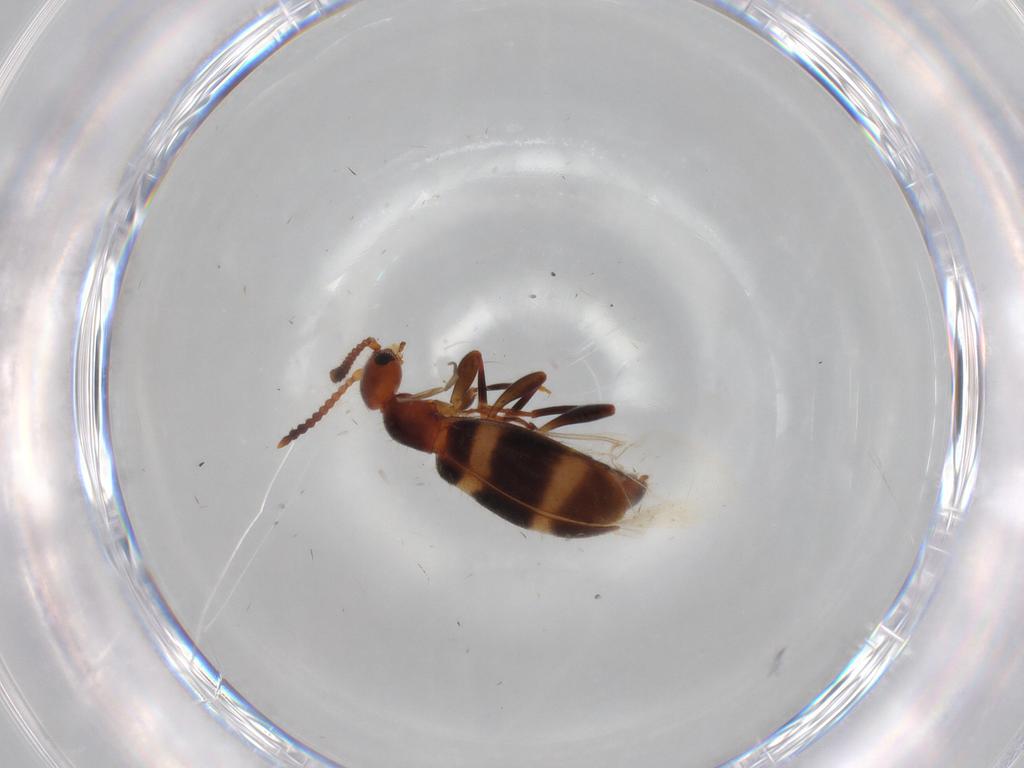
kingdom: Animalia
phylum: Arthropoda
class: Insecta
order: Coleoptera
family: Anthicidae
